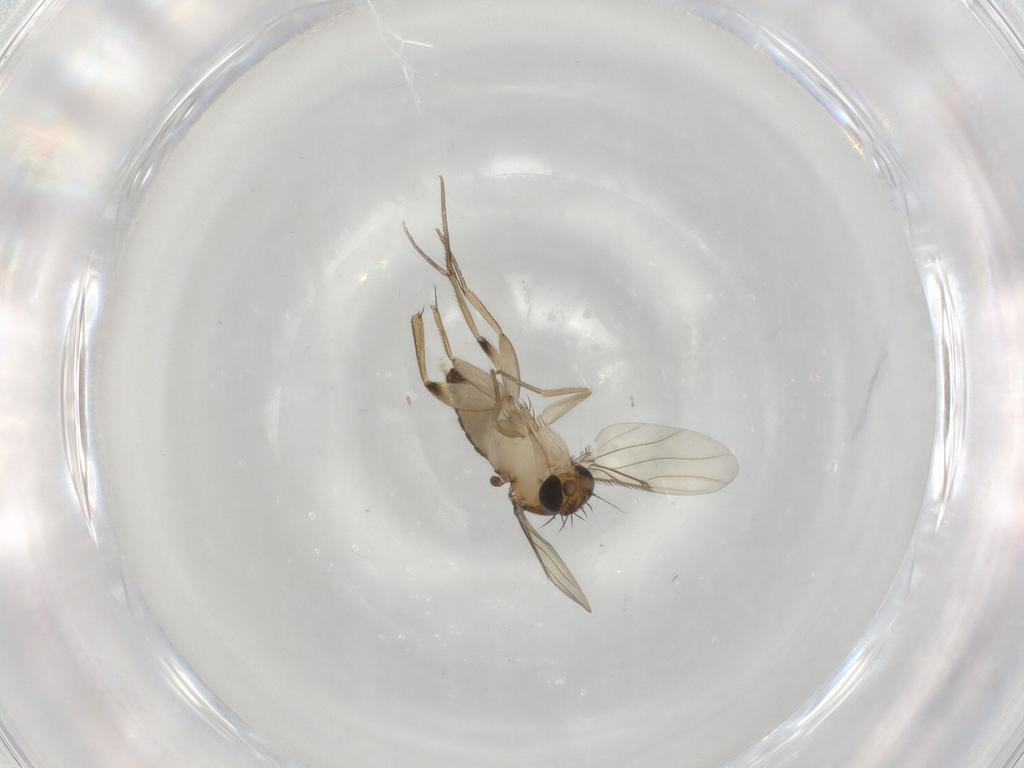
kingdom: Animalia
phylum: Arthropoda
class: Insecta
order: Diptera
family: Phoridae
